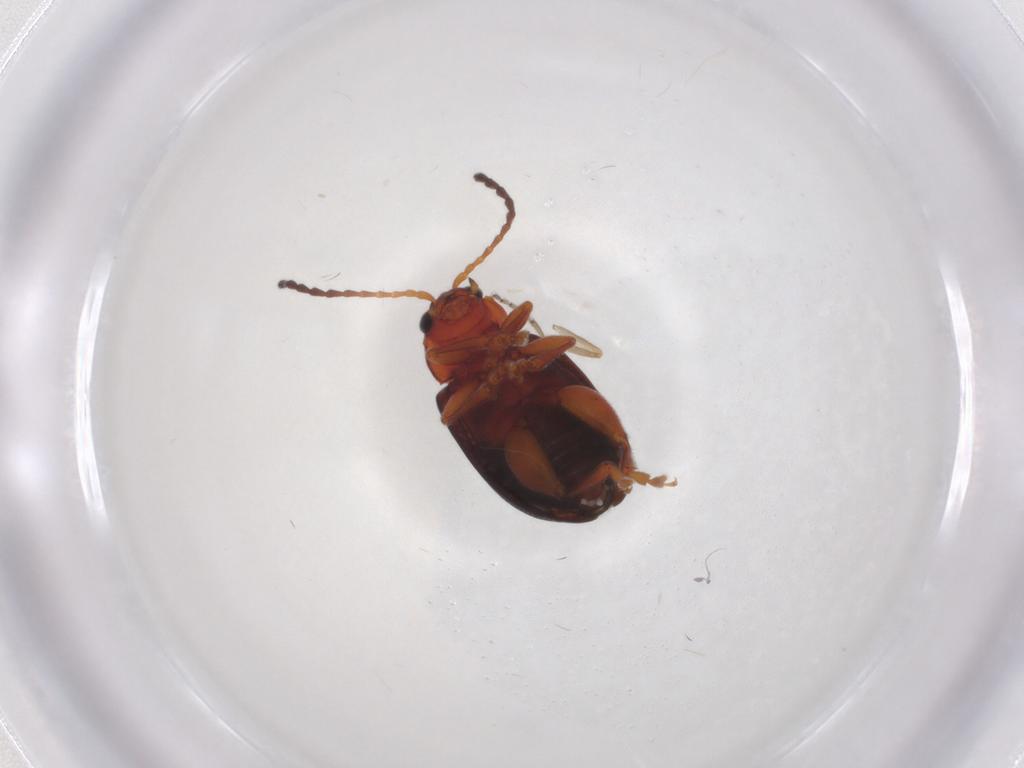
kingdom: Animalia
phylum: Arthropoda
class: Insecta
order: Coleoptera
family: Chrysomelidae
